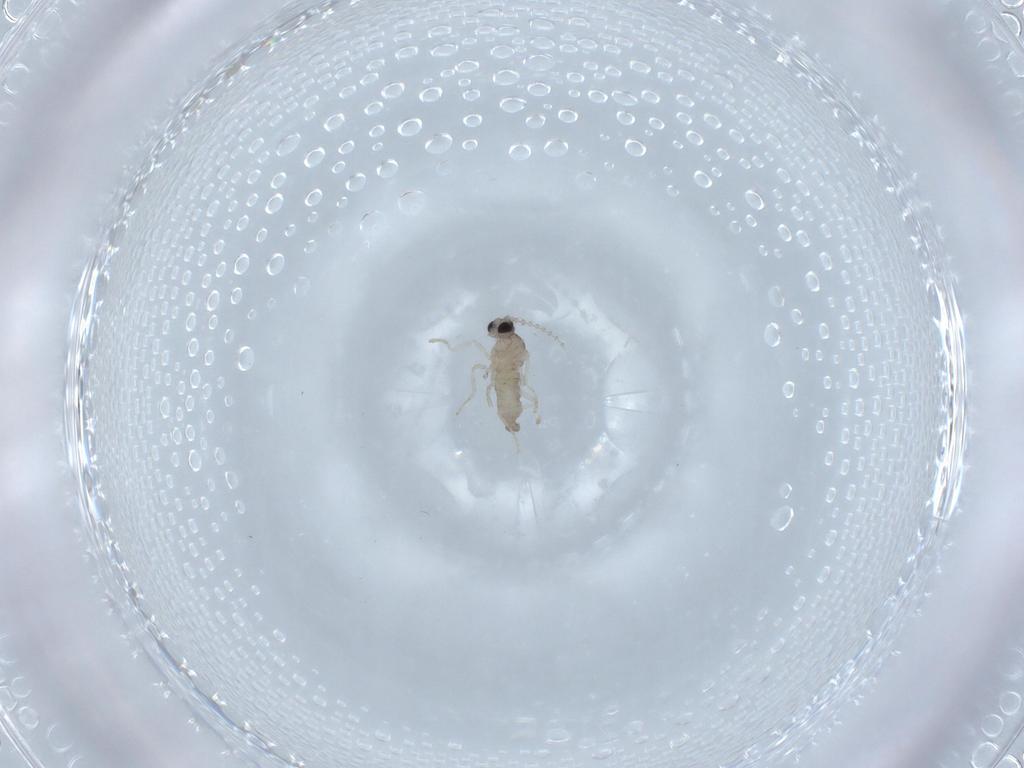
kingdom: Animalia
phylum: Arthropoda
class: Insecta
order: Diptera
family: Cecidomyiidae
